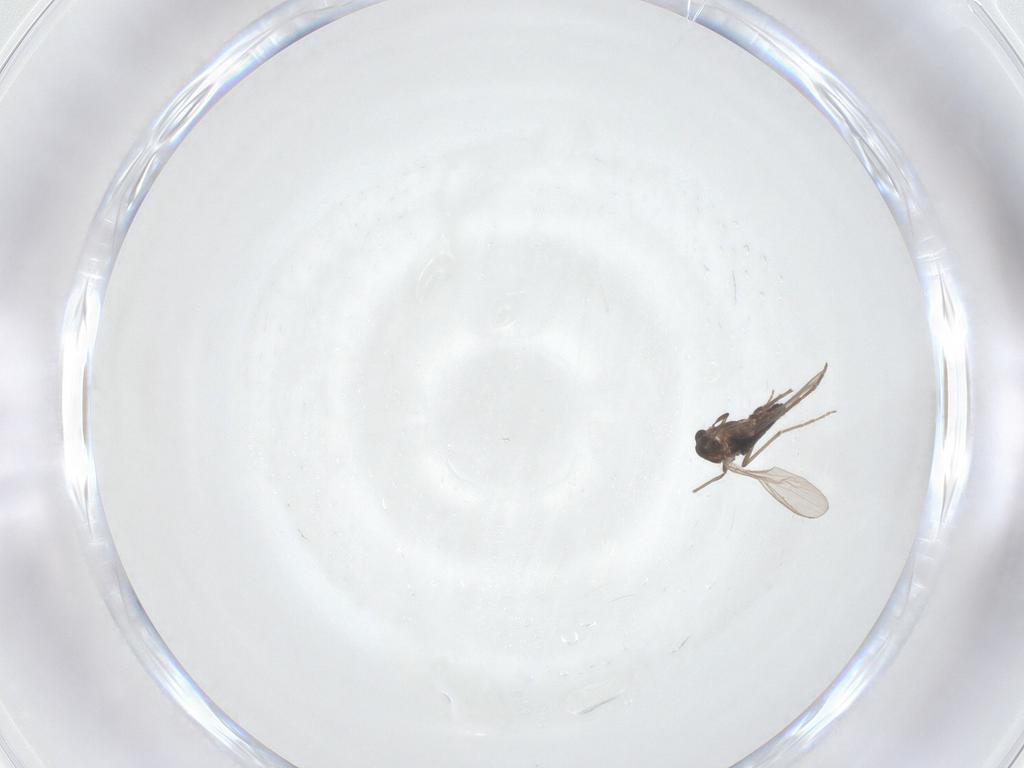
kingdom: Animalia
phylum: Arthropoda
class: Insecta
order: Diptera
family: Chironomidae
